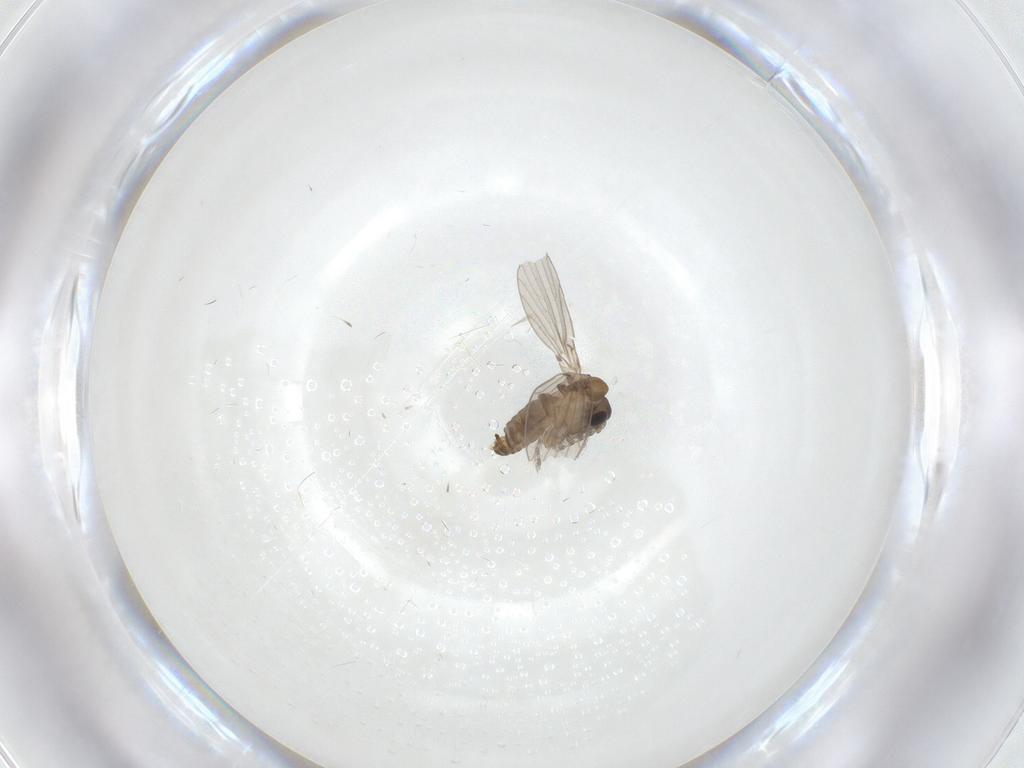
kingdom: Animalia
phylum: Arthropoda
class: Insecta
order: Diptera
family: Psychodidae
